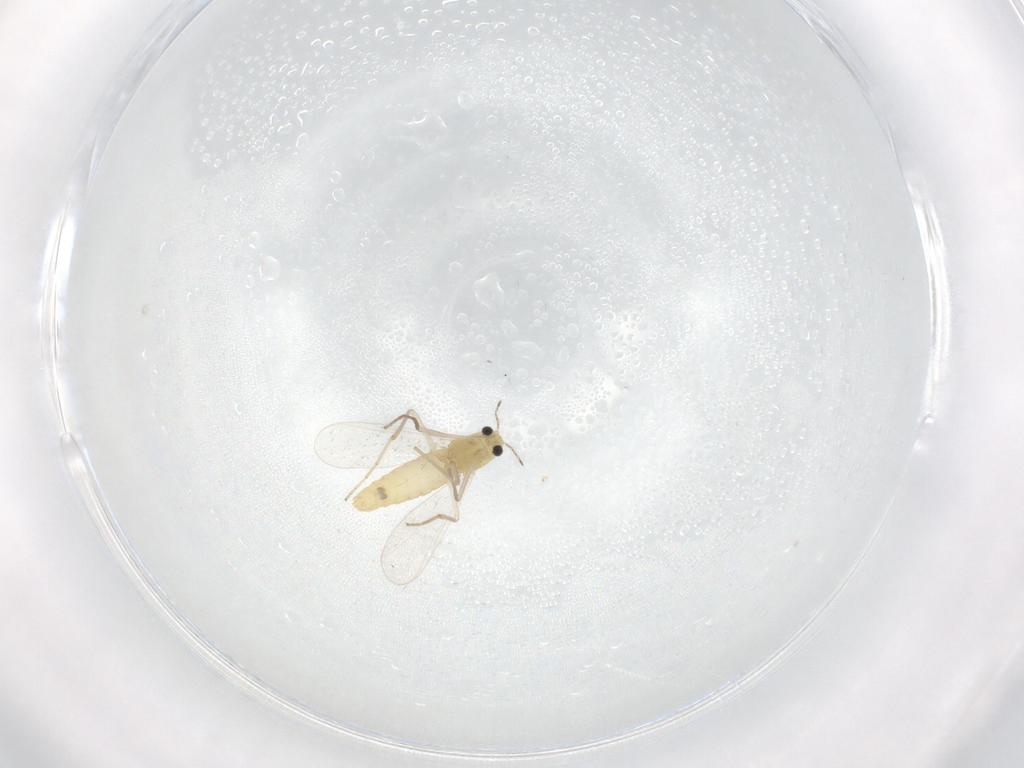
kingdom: Animalia
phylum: Arthropoda
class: Insecta
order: Diptera
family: Chironomidae
